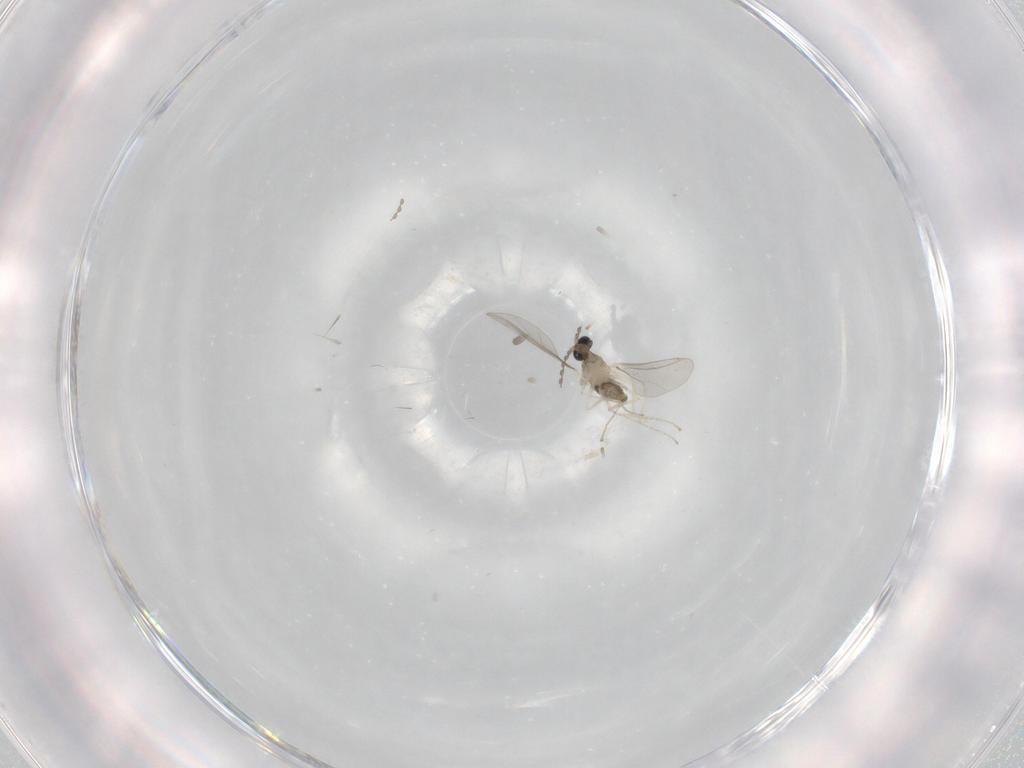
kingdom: Animalia
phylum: Arthropoda
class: Insecta
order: Diptera
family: Cecidomyiidae
